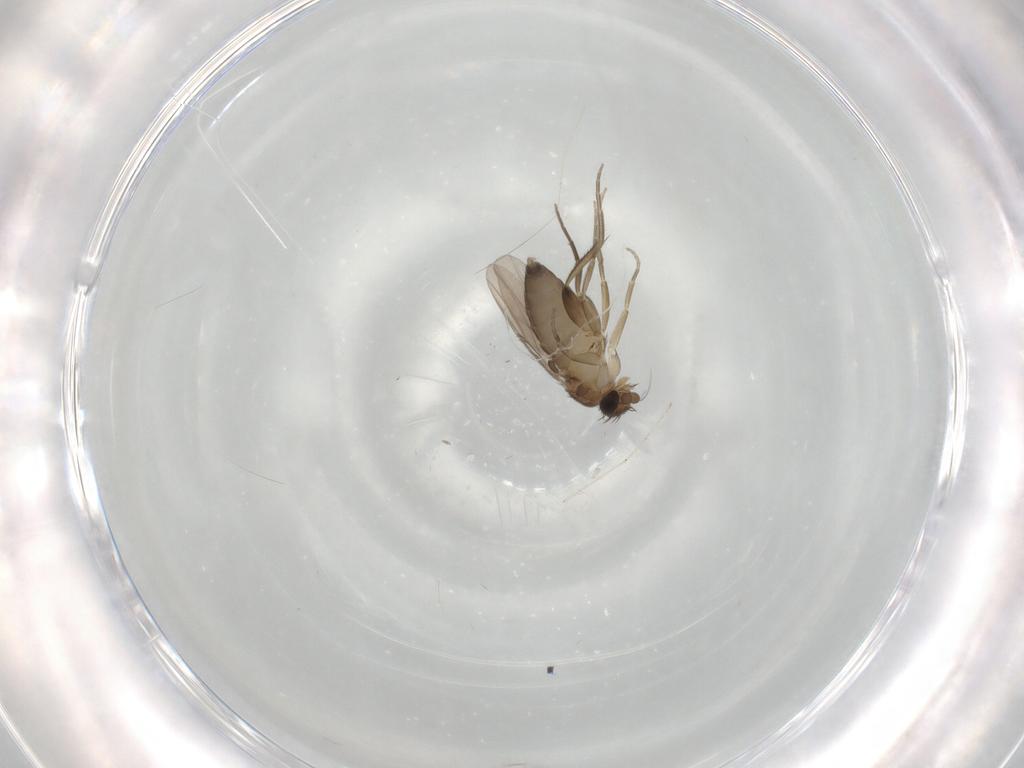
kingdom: Animalia
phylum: Arthropoda
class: Insecta
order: Diptera
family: Phoridae
